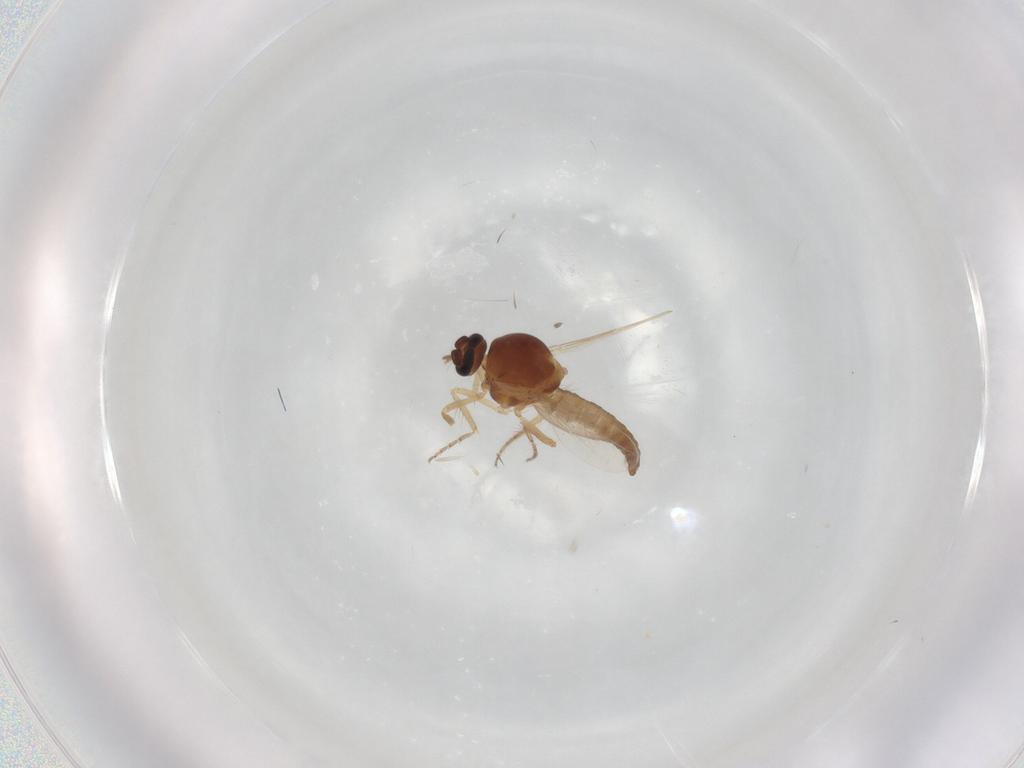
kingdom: Animalia
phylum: Arthropoda
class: Insecta
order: Diptera
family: Ceratopogonidae
